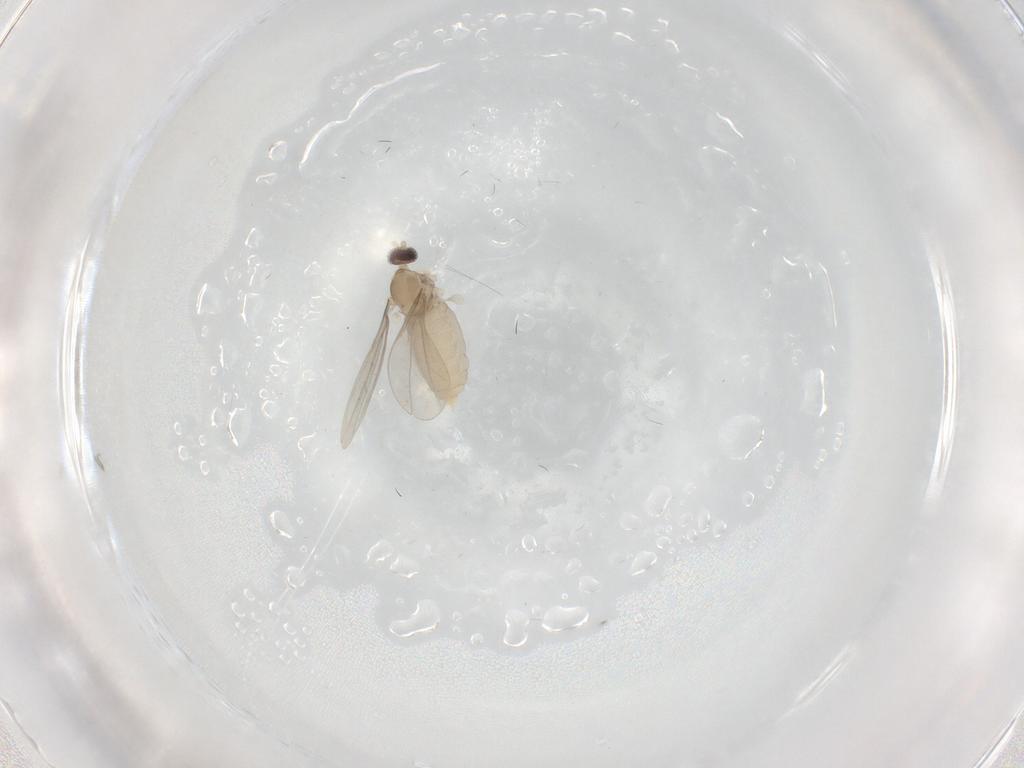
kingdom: Animalia
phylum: Arthropoda
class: Insecta
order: Diptera
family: Cecidomyiidae
